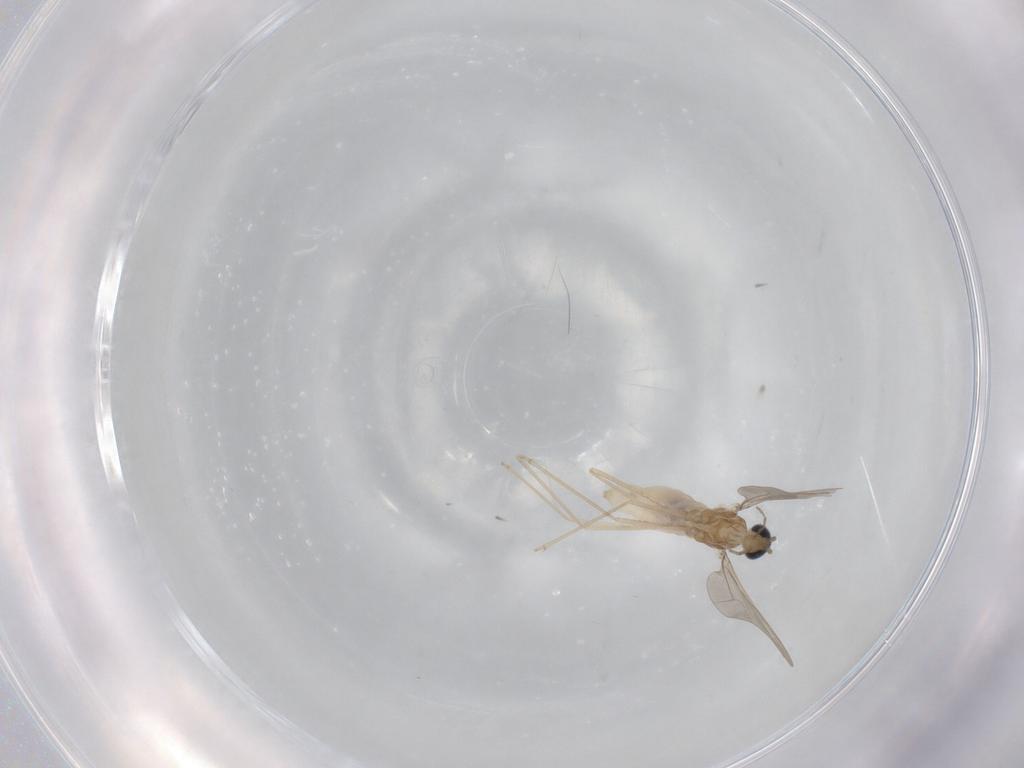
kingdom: Animalia
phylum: Arthropoda
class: Insecta
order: Diptera
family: Cecidomyiidae
